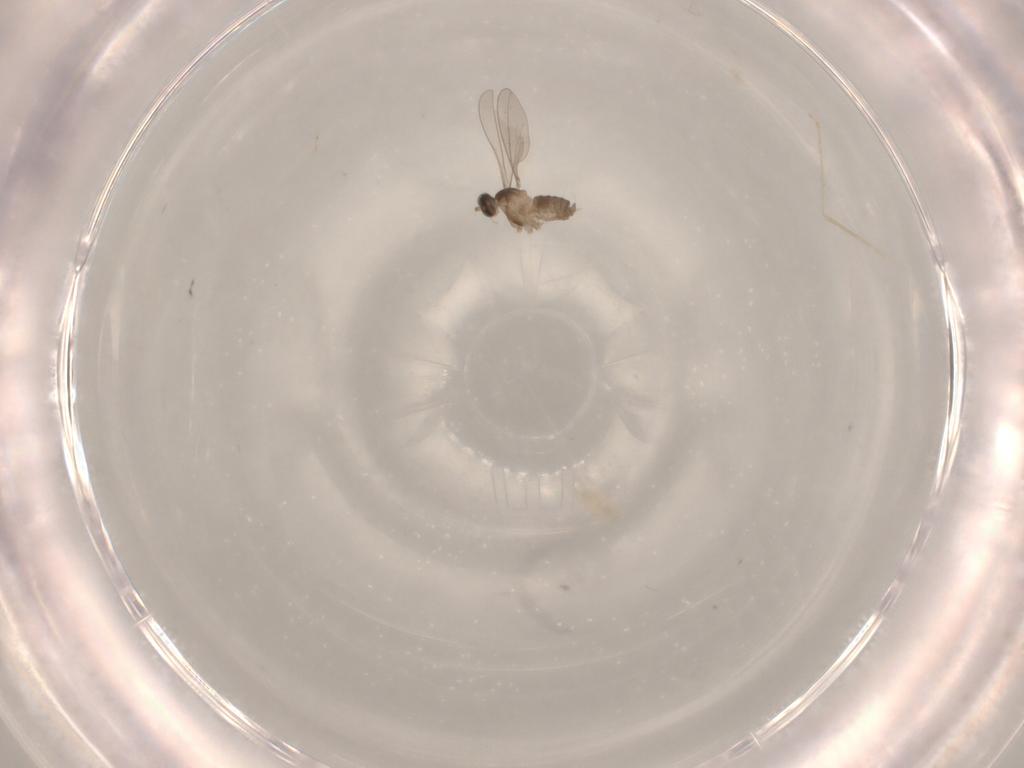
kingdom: Animalia
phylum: Arthropoda
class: Insecta
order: Diptera
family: Cecidomyiidae
